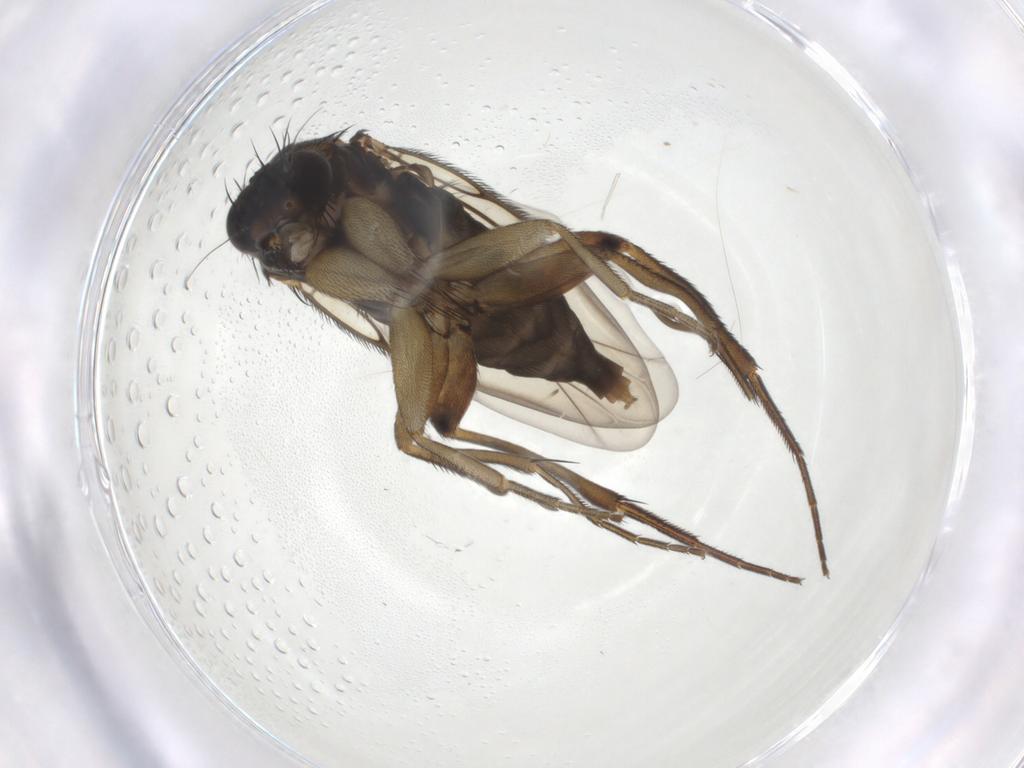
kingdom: Animalia
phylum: Arthropoda
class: Insecta
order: Diptera
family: Phoridae
